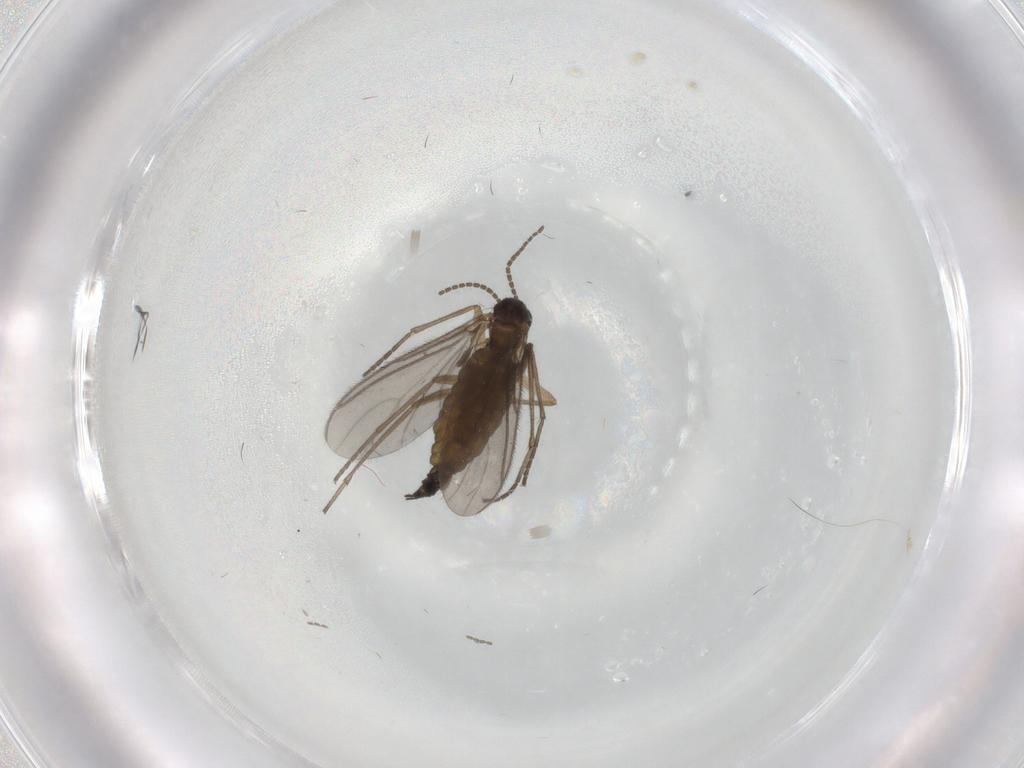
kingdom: Animalia
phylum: Arthropoda
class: Insecta
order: Diptera
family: Sciaridae
